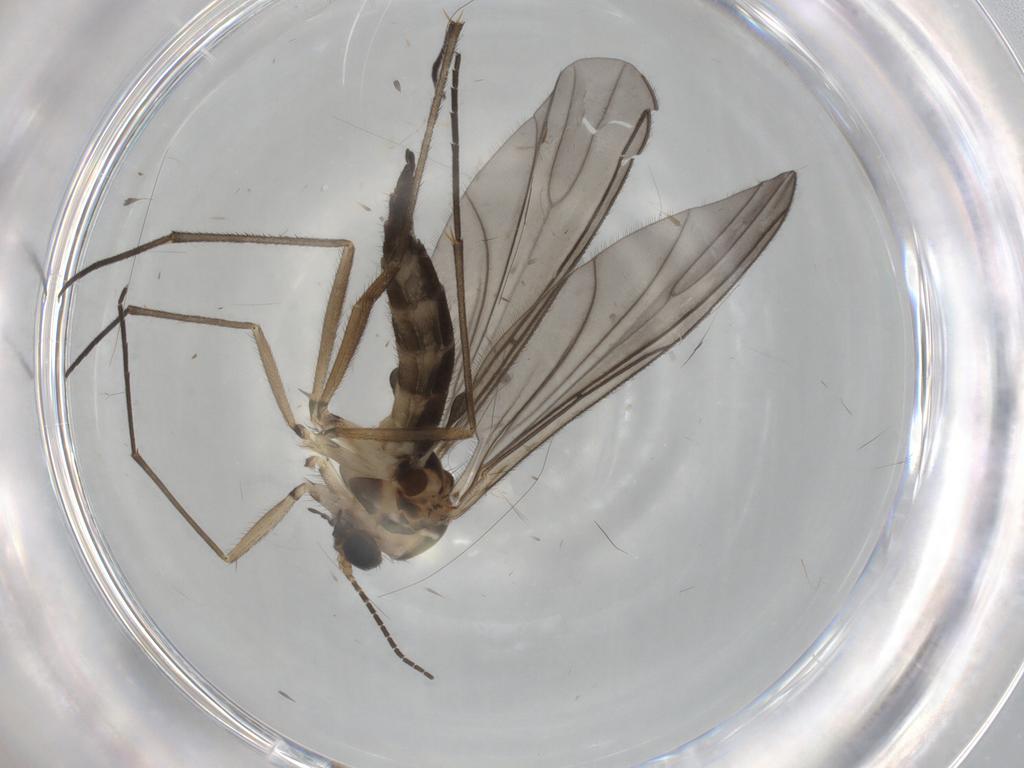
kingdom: Animalia
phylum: Arthropoda
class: Insecta
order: Diptera
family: Sciaridae
